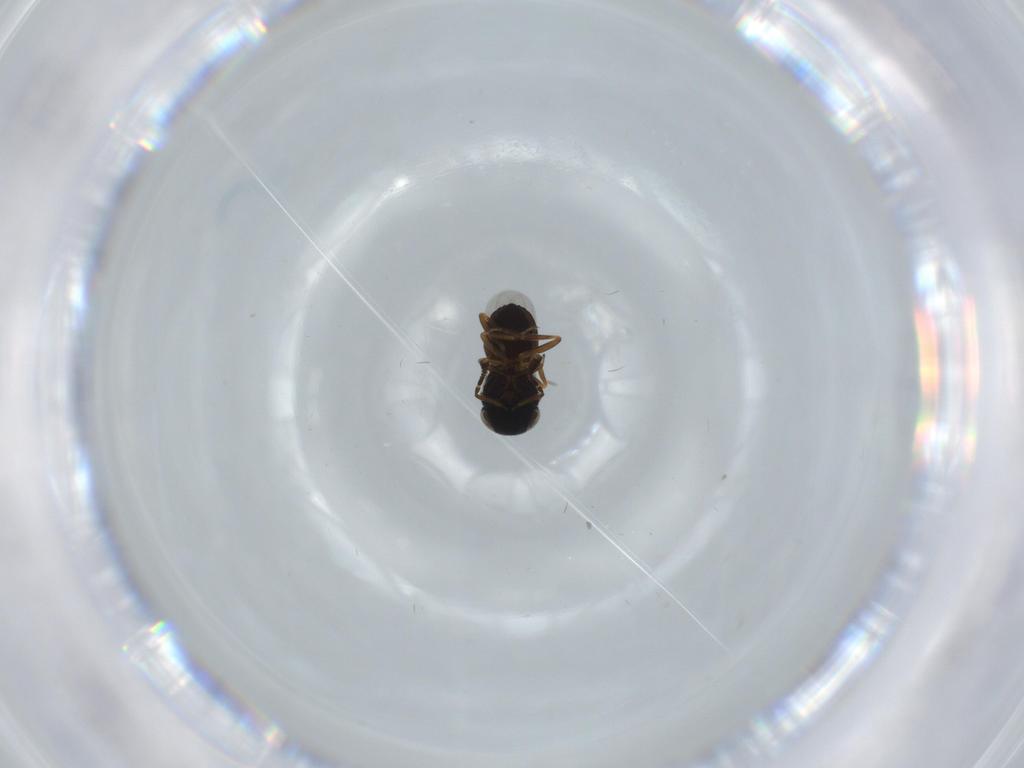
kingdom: Animalia
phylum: Arthropoda
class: Insecta
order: Hymenoptera
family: Scelionidae
